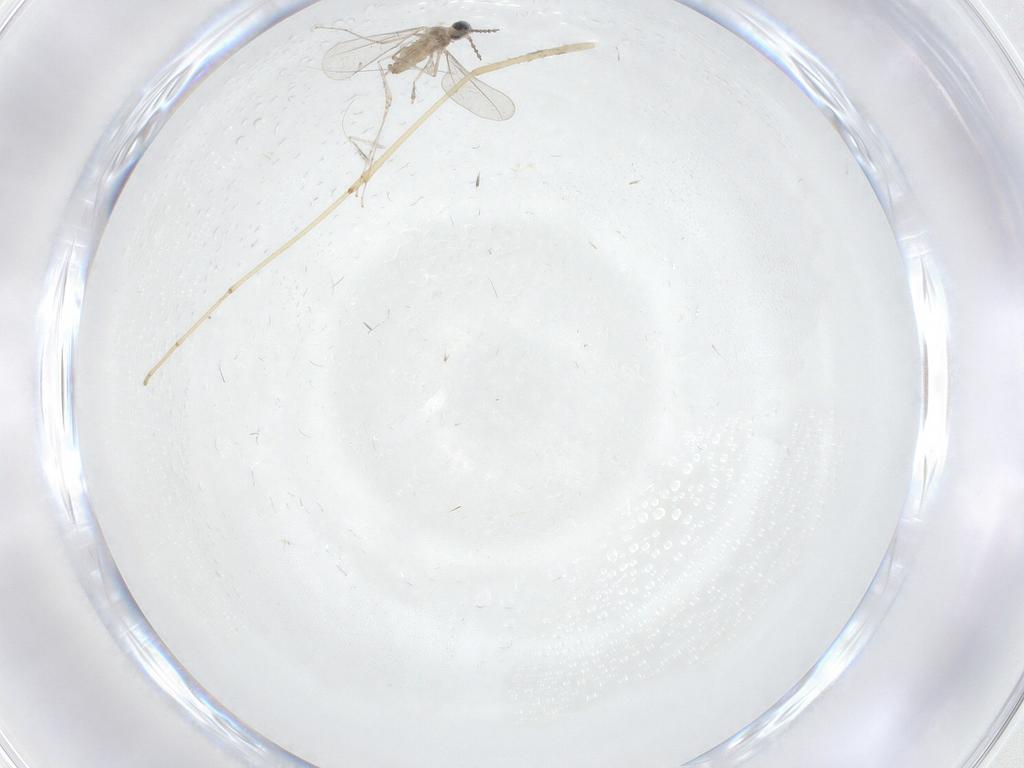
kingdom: Animalia
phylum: Arthropoda
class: Insecta
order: Diptera
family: Cecidomyiidae
